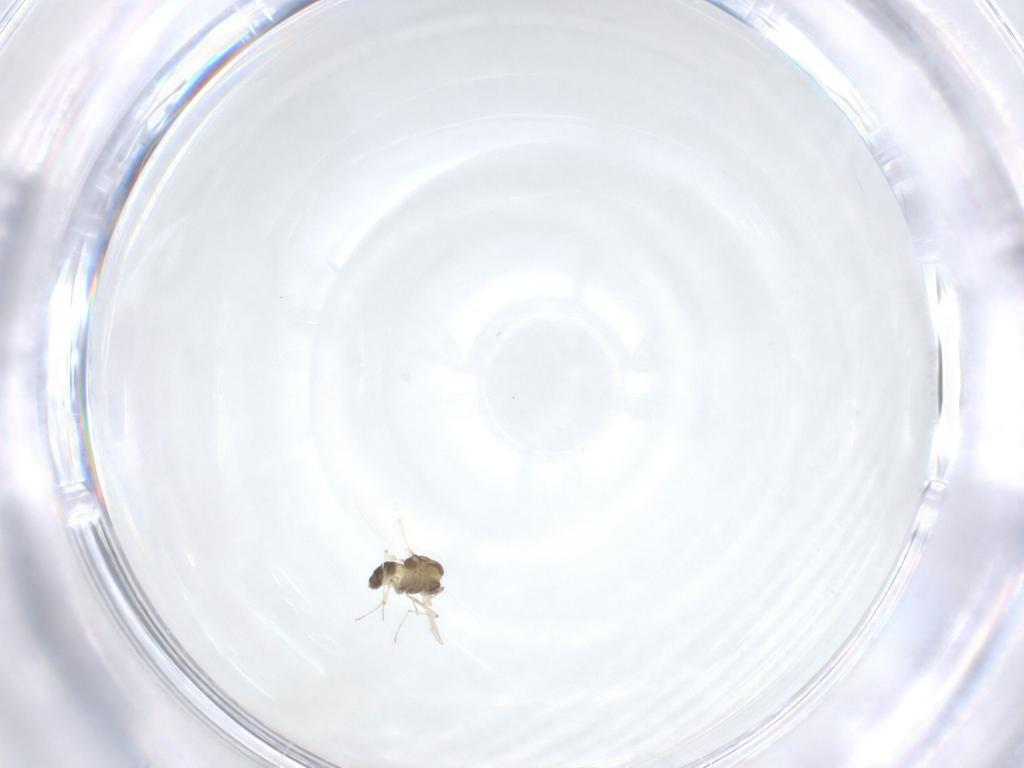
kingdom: Animalia
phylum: Arthropoda
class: Insecta
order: Diptera
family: Chironomidae
